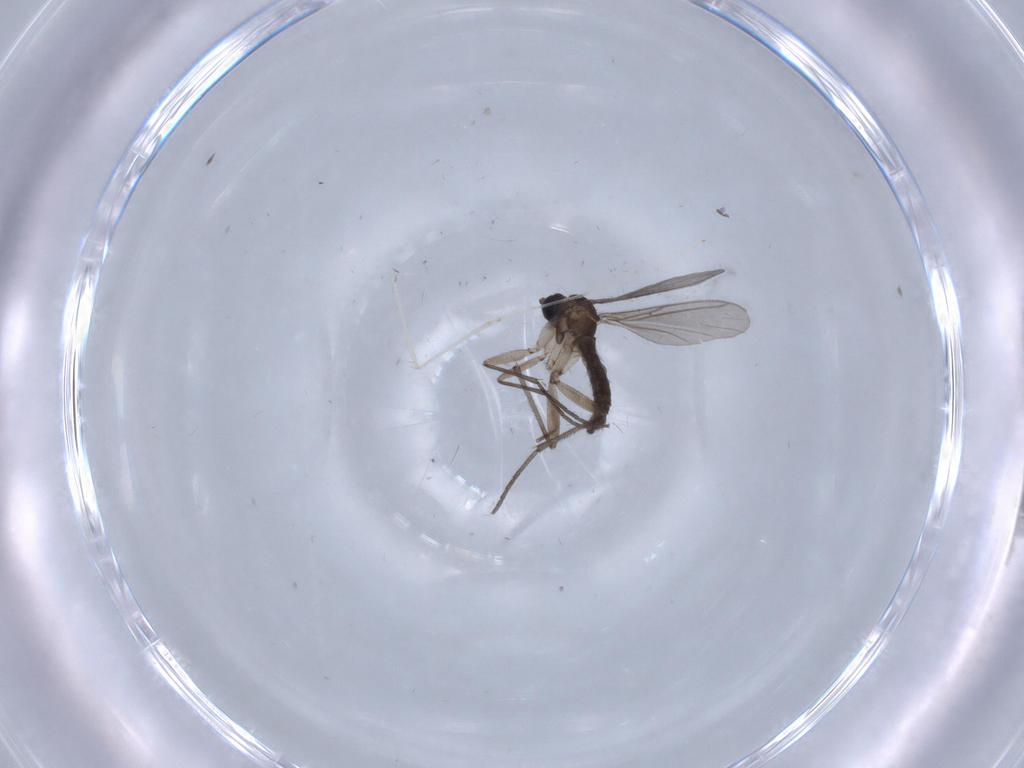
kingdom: Animalia
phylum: Arthropoda
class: Insecta
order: Diptera
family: Sciaridae
